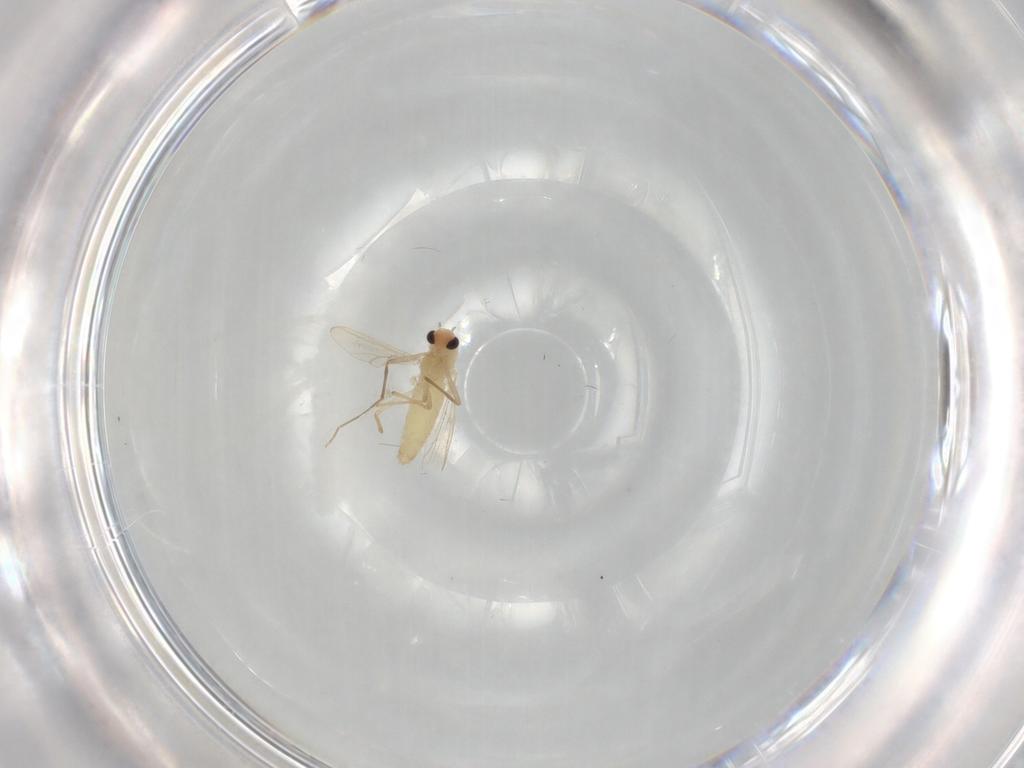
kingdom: Animalia
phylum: Arthropoda
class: Insecta
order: Diptera
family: Chironomidae
